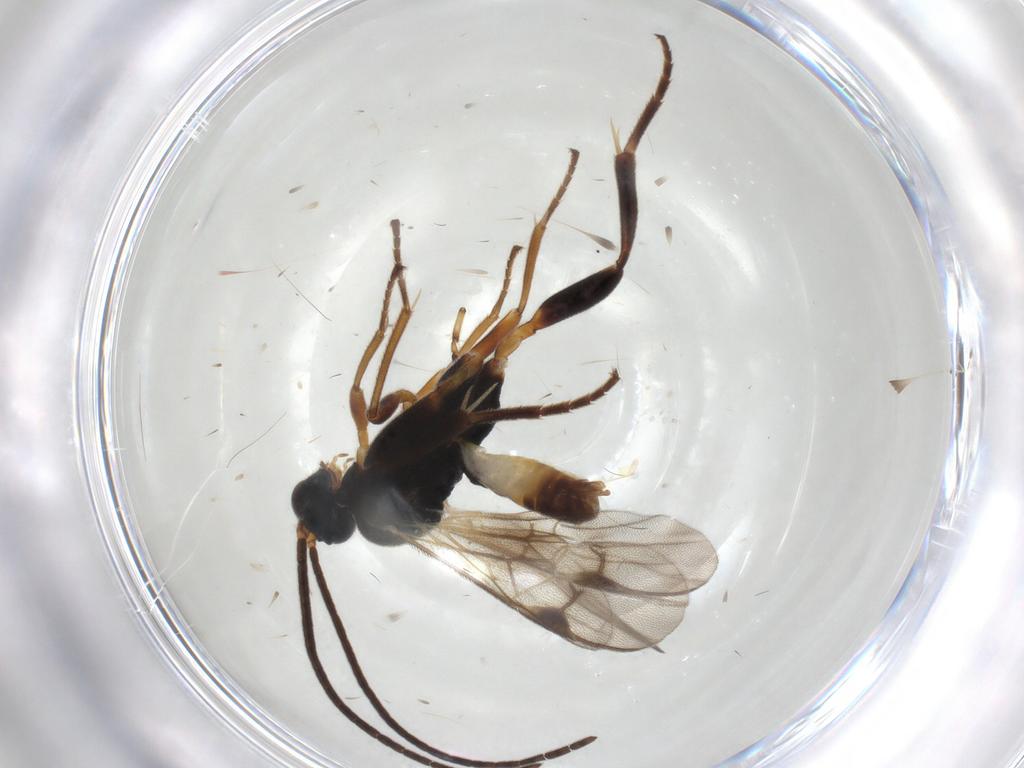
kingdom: Animalia
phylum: Arthropoda
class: Insecta
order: Hymenoptera
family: Braconidae
